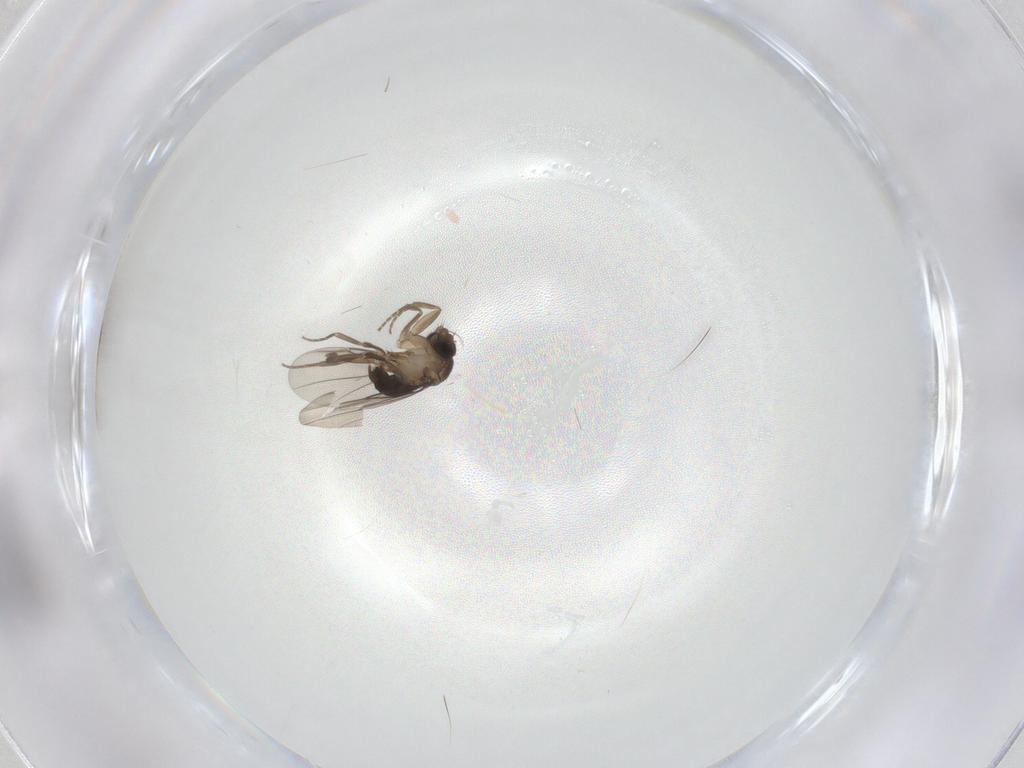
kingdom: Animalia
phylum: Arthropoda
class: Insecta
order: Diptera
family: Phoridae
